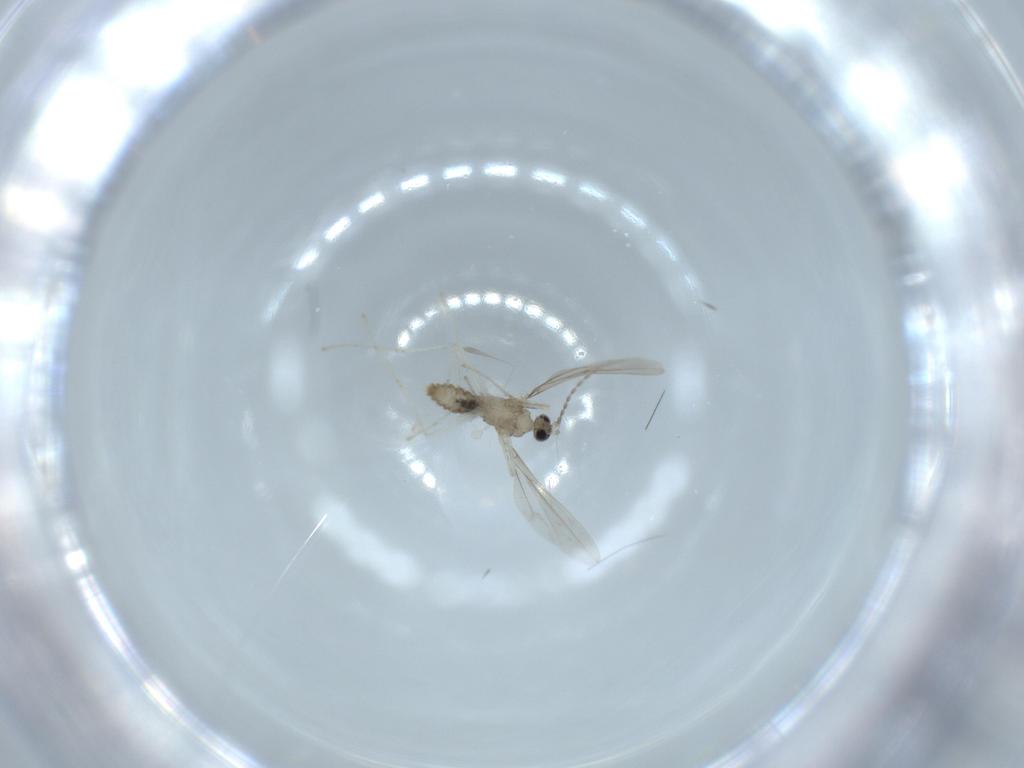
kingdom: Animalia
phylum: Arthropoda
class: Insecta
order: Diptera
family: Cecidomyiidae
